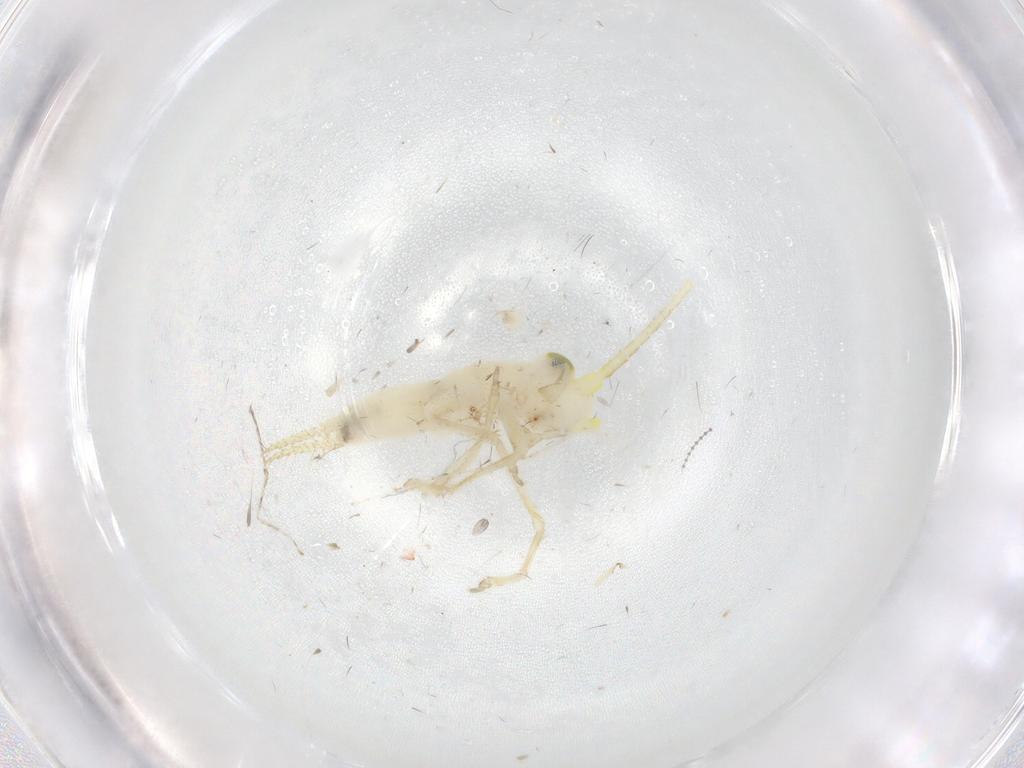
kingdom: Animalia
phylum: Arthropoda
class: Insecta
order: Orthoptera
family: Trigonidiidae
